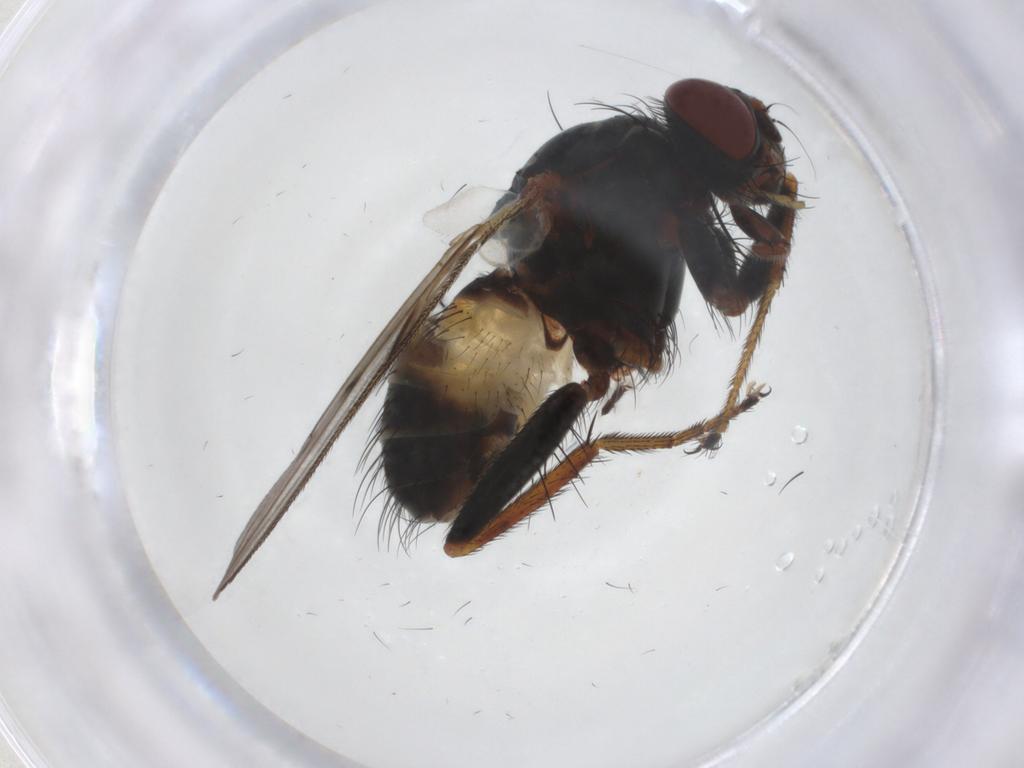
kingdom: Animalia
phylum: Arthropoda
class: Insecta
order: Diptera
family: Muscidae
